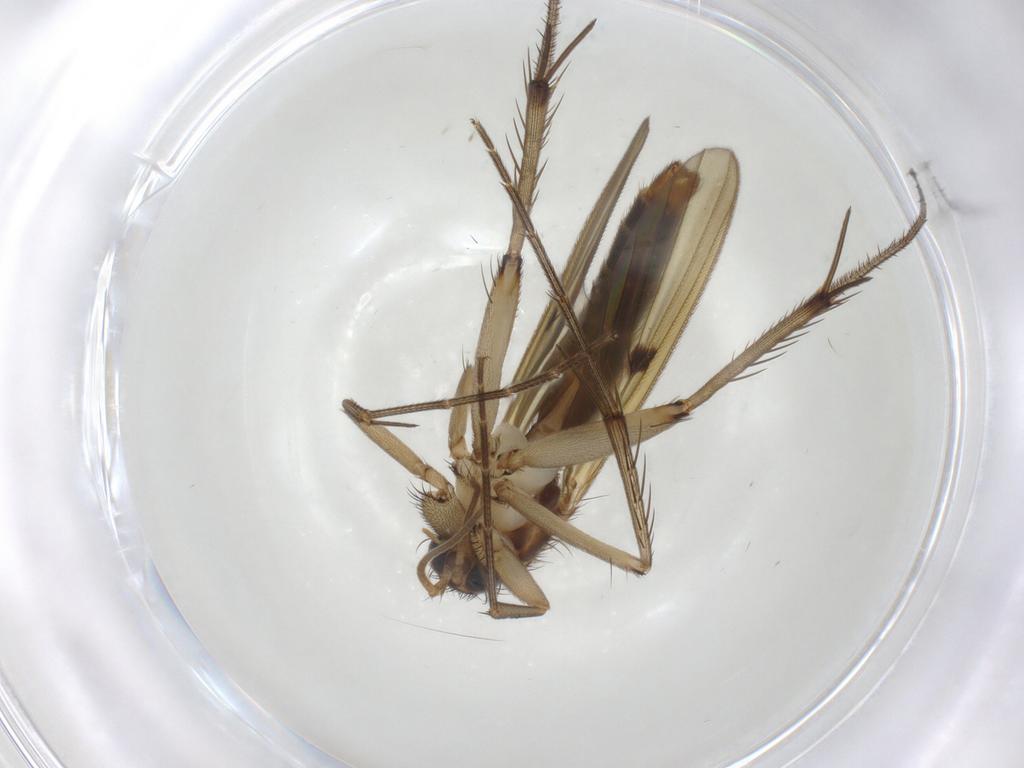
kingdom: Animalia
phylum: Arthropoda
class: Insecta
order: Diptera
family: Mycetophilidae
